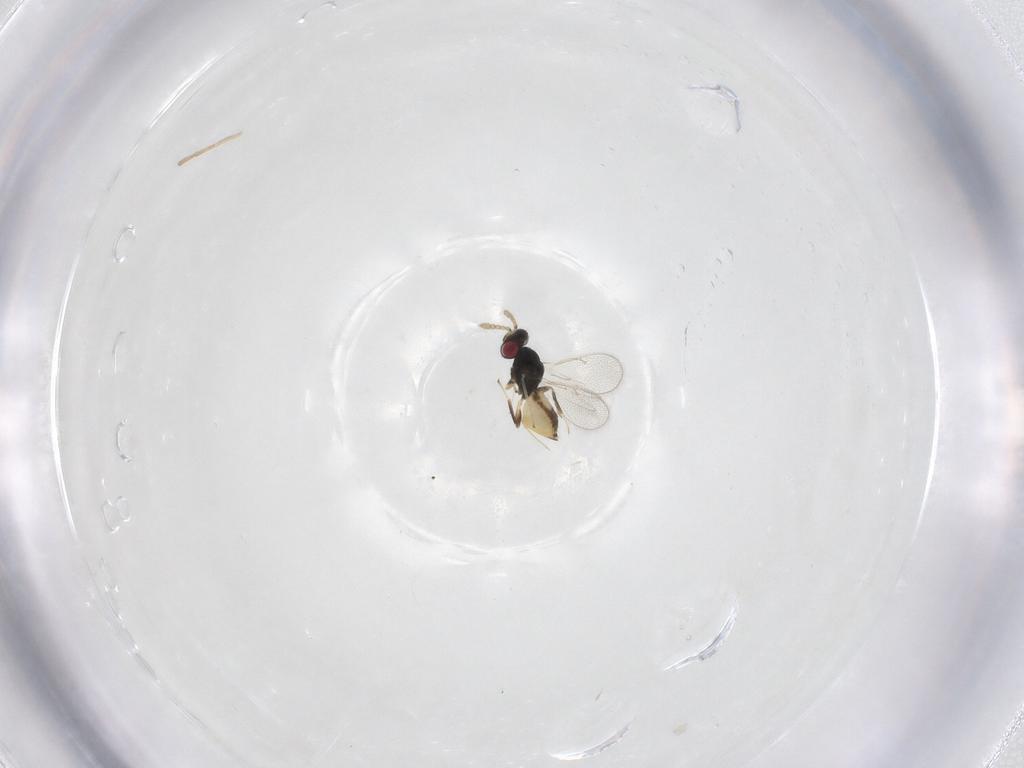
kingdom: Animalia
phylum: Arthropoda
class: Insecta
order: Hymenoptera
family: Eulophidae
